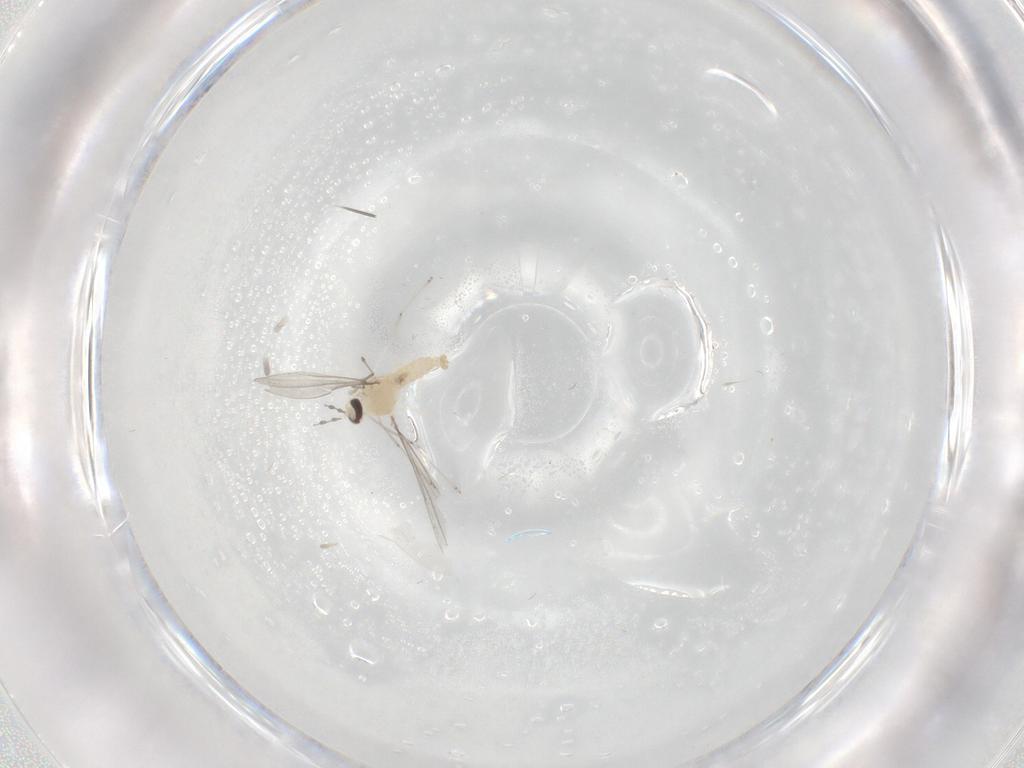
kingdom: Animalia
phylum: Arthropoda
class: Insecta
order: Diptera
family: Cecidomyiidae
